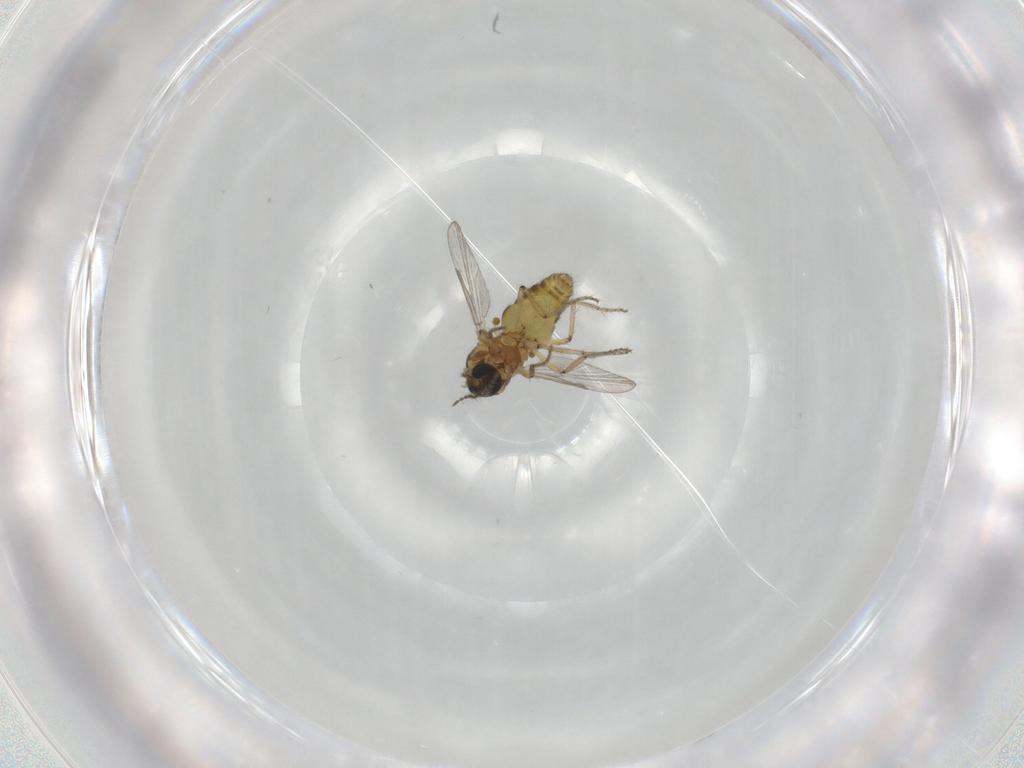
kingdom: Animalia
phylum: Arthropoda
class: Insecta
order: Diptera
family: Ceratopogonidae
